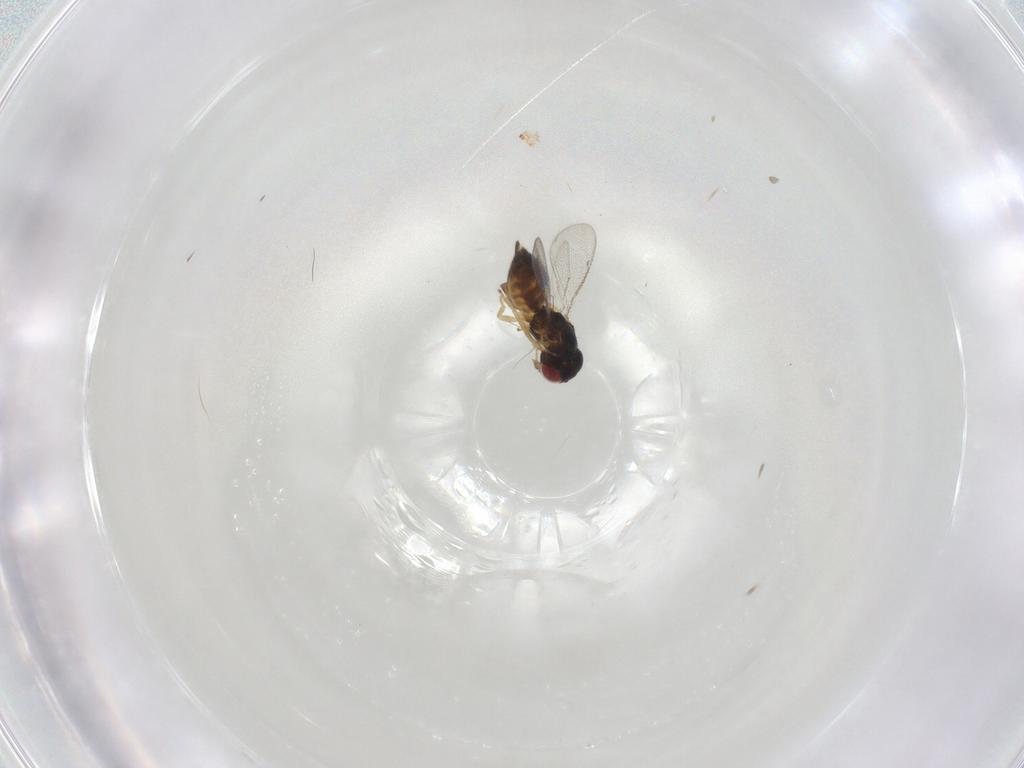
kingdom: Animalia
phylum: Arthropoda
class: Insecta
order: Hymenoptera
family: Eulophidae
